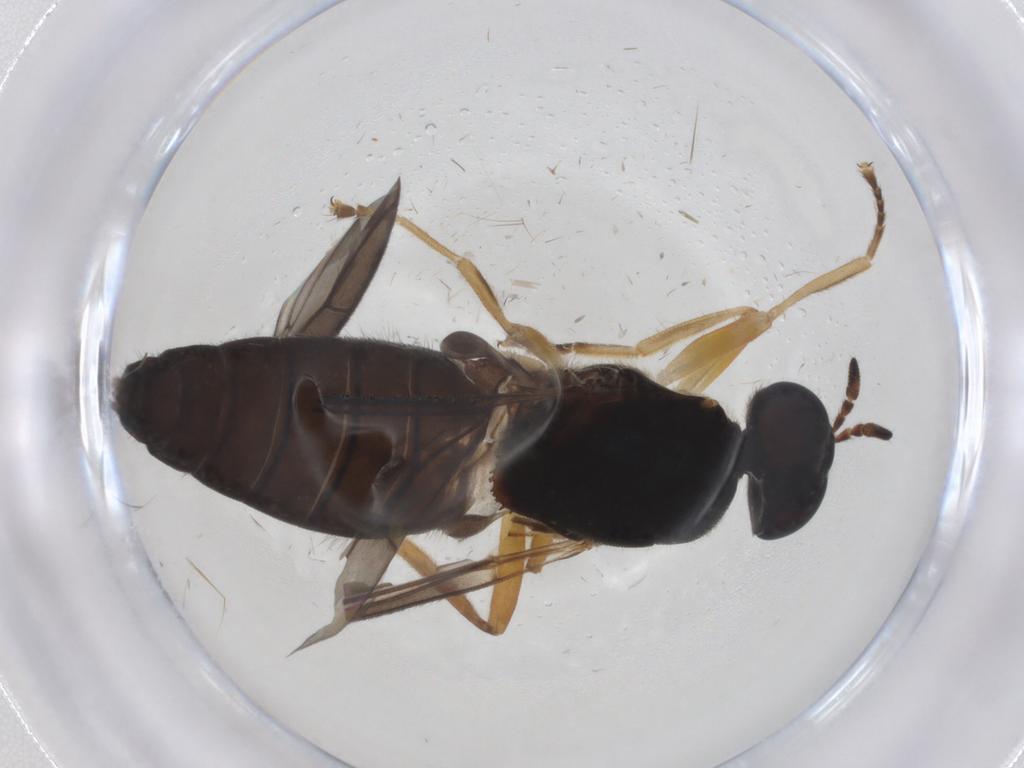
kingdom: Animalia
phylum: Arthropoda
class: Insecta
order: Diptera
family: Stratiomyidae
